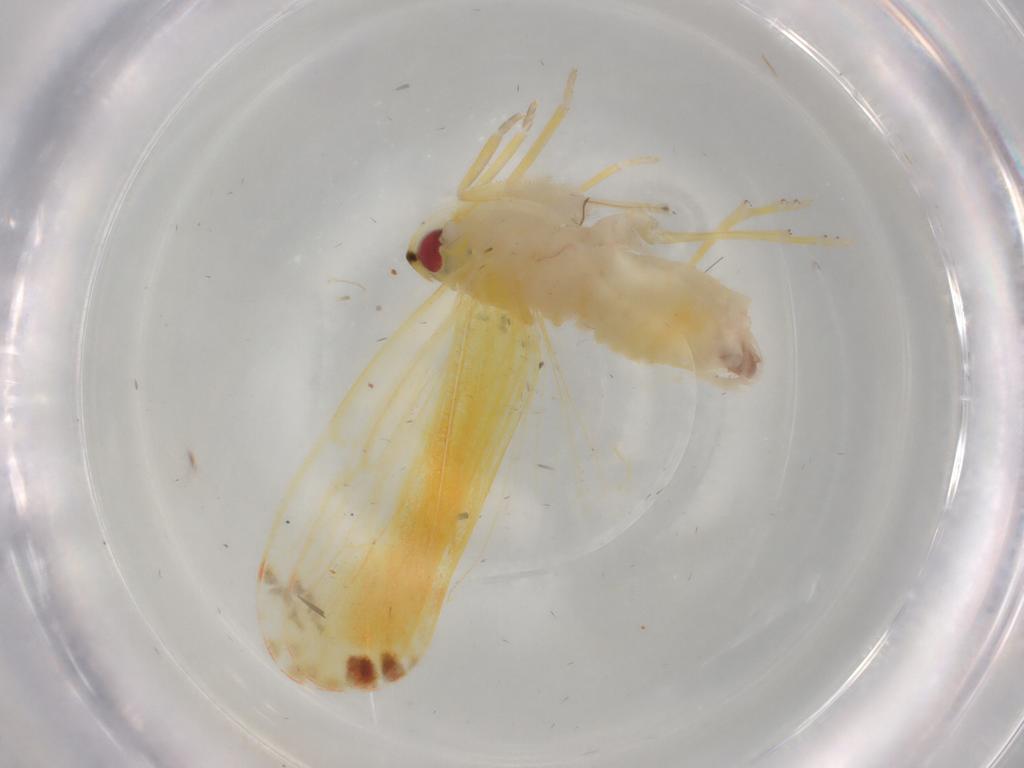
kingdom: Animalia
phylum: Arthropoda
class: Insecta
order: Hemiptera
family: Derbidae
